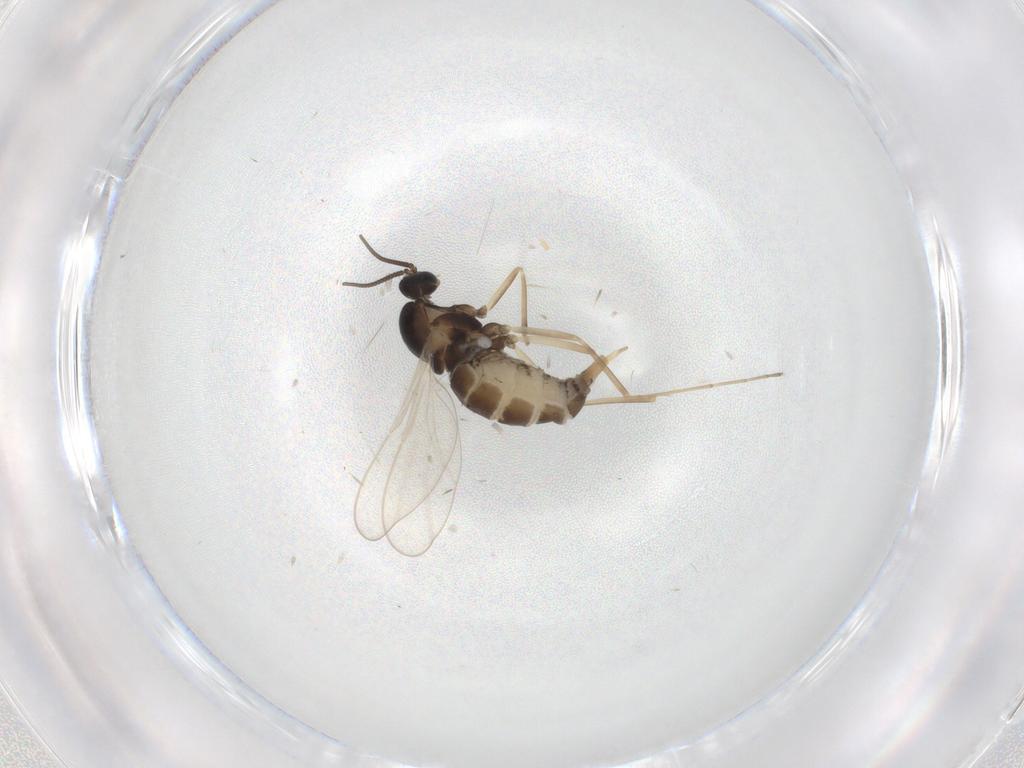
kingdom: Animalia
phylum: Arthropoda
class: Insecta
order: Diptera
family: Cecidomyiidae
